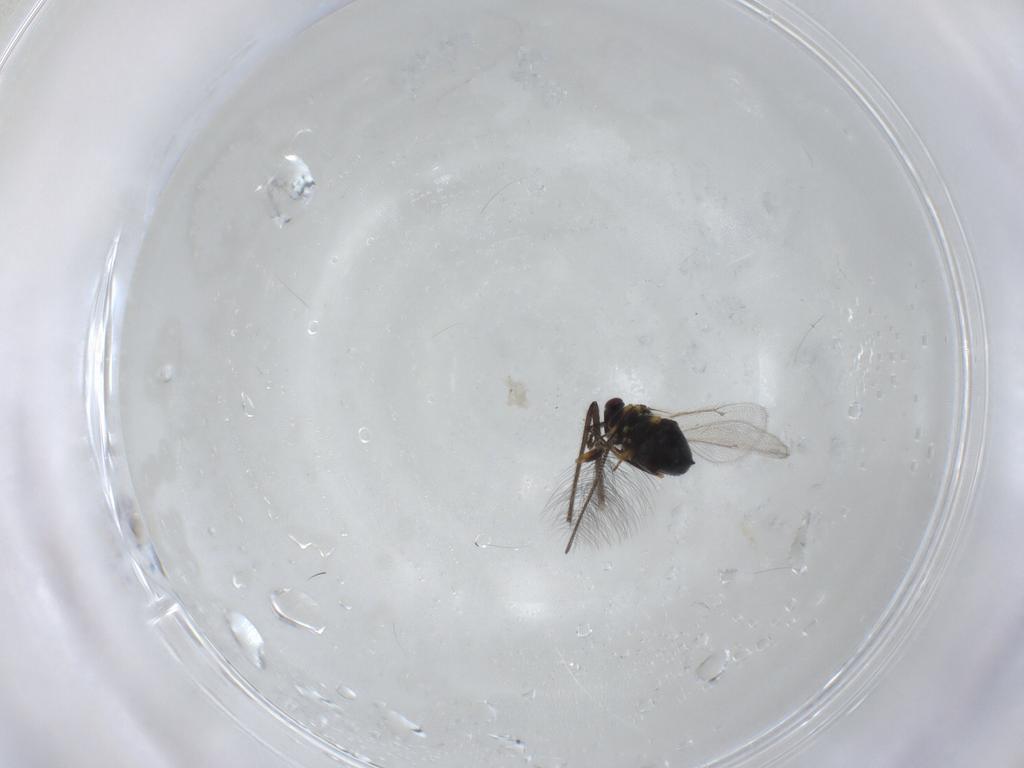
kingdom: Animalia
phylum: Arthropoda
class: Insecta
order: Hymenoptera
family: Eulophidae
